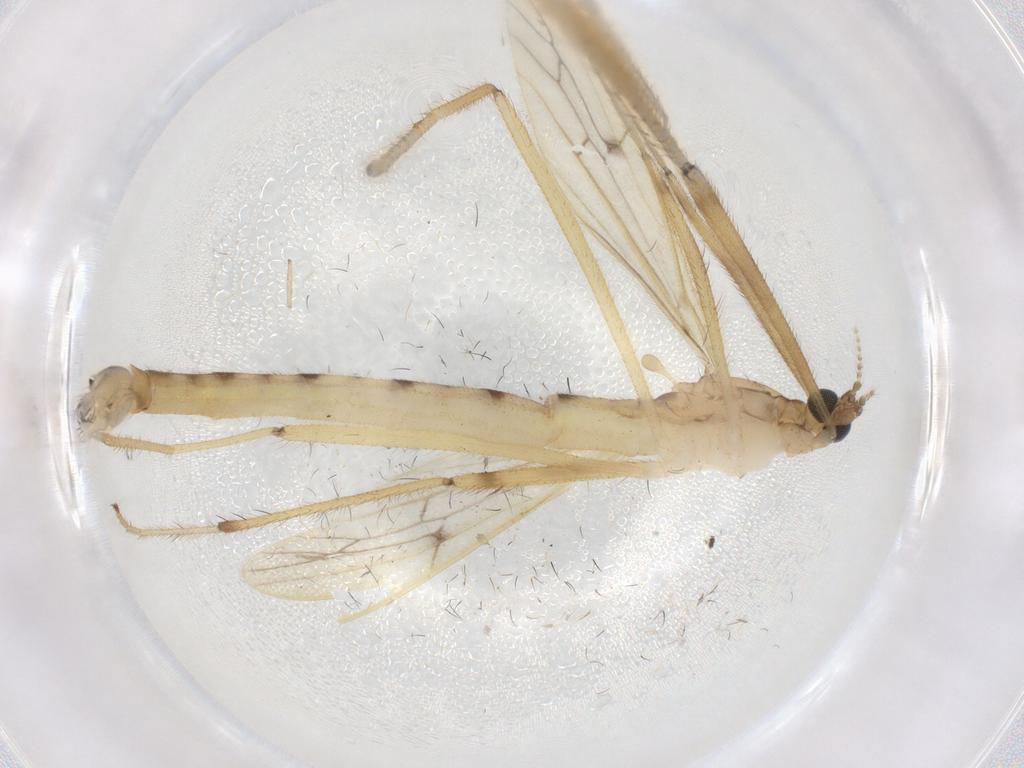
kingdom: Animalia
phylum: Arthropoda
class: Insecta
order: Diptera
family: Limoniidae
